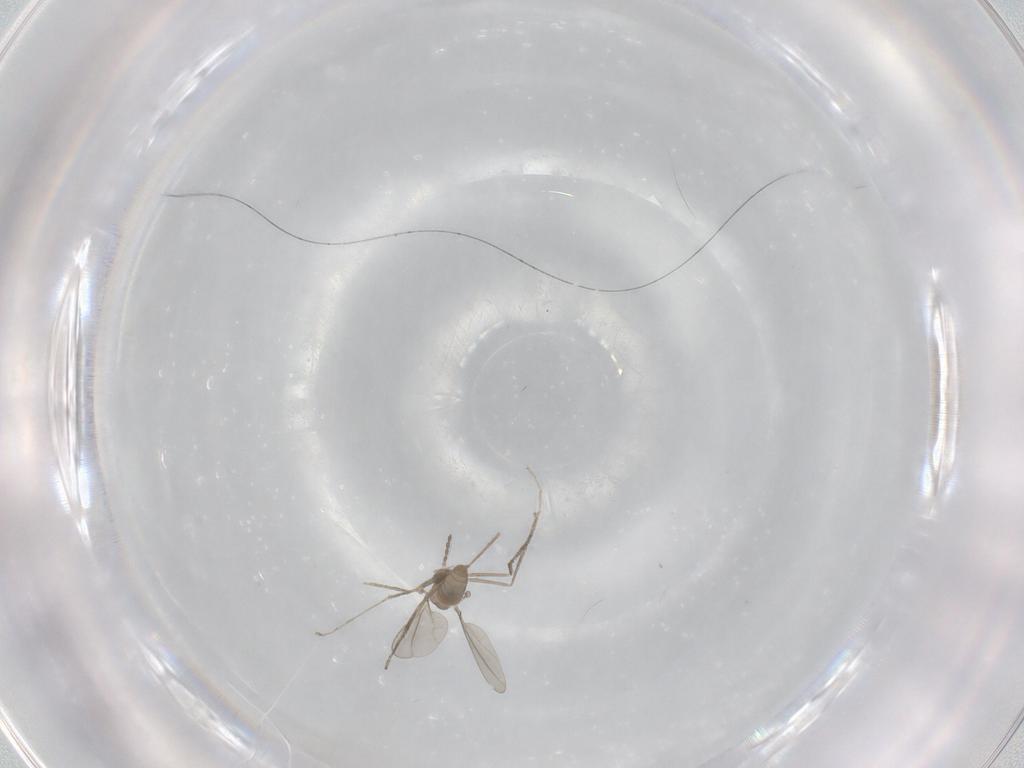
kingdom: Animalia
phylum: Arthropoda
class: Insecta
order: Diptera
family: Cecidomyiidae
